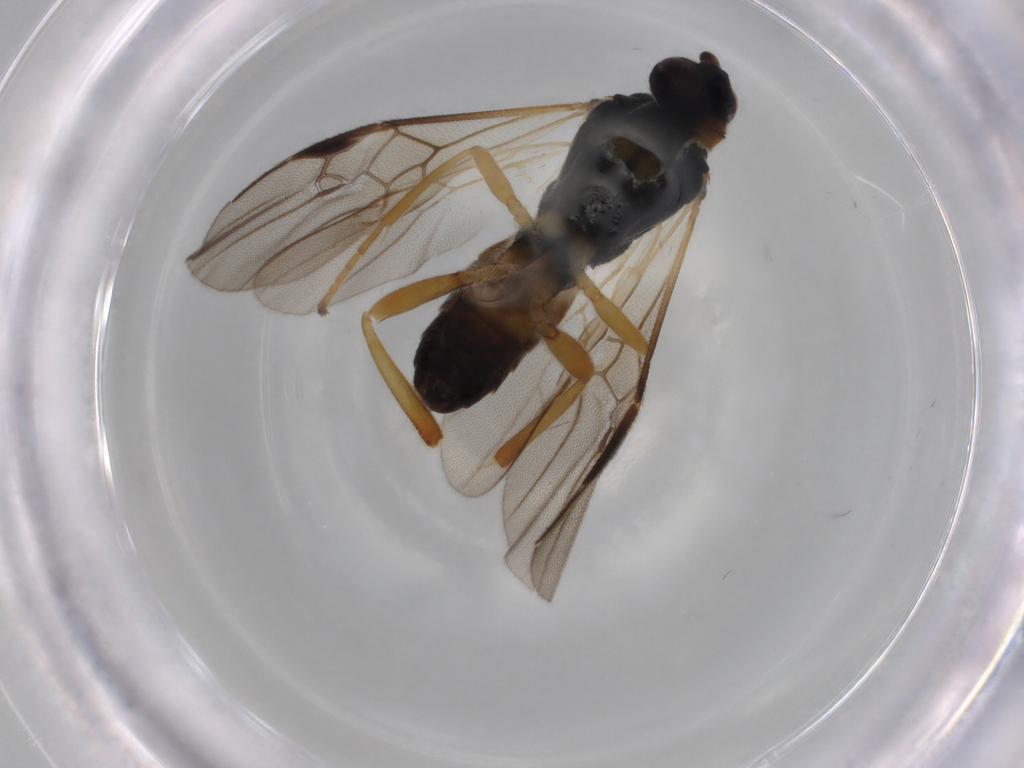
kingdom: Animalia
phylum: Arthropoda
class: Insecta
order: Hymenoptera
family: Braconidae
